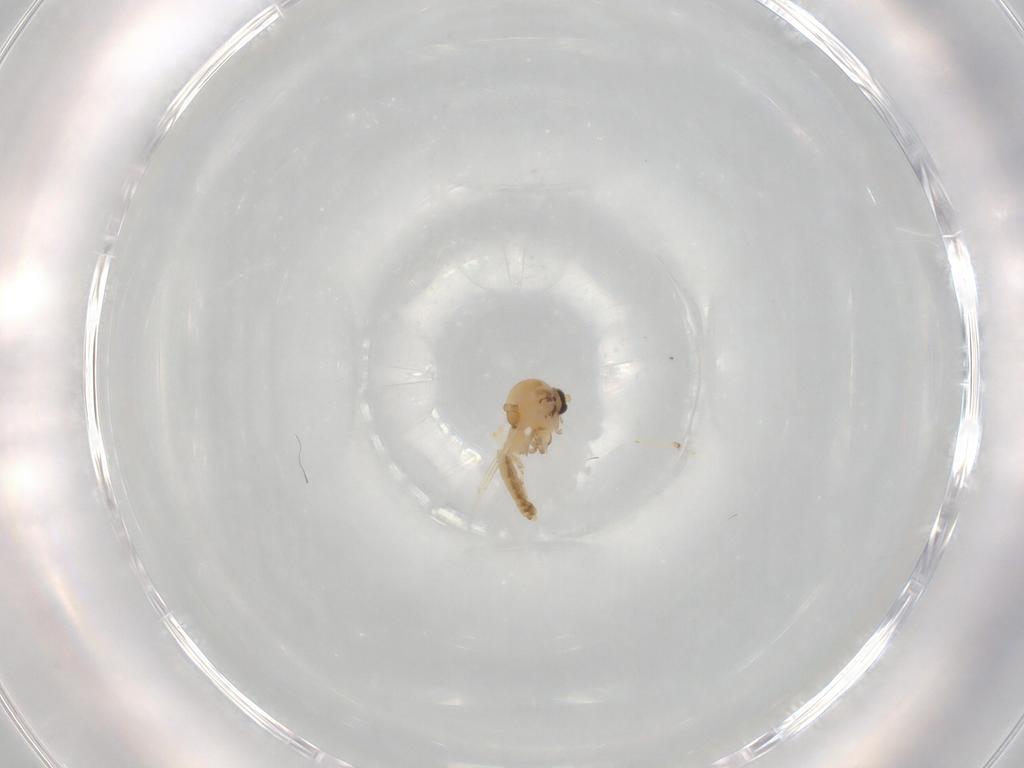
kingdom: Animalia
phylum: Arthropoda
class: Insecta
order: Diptera
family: Ceratopogonidae
